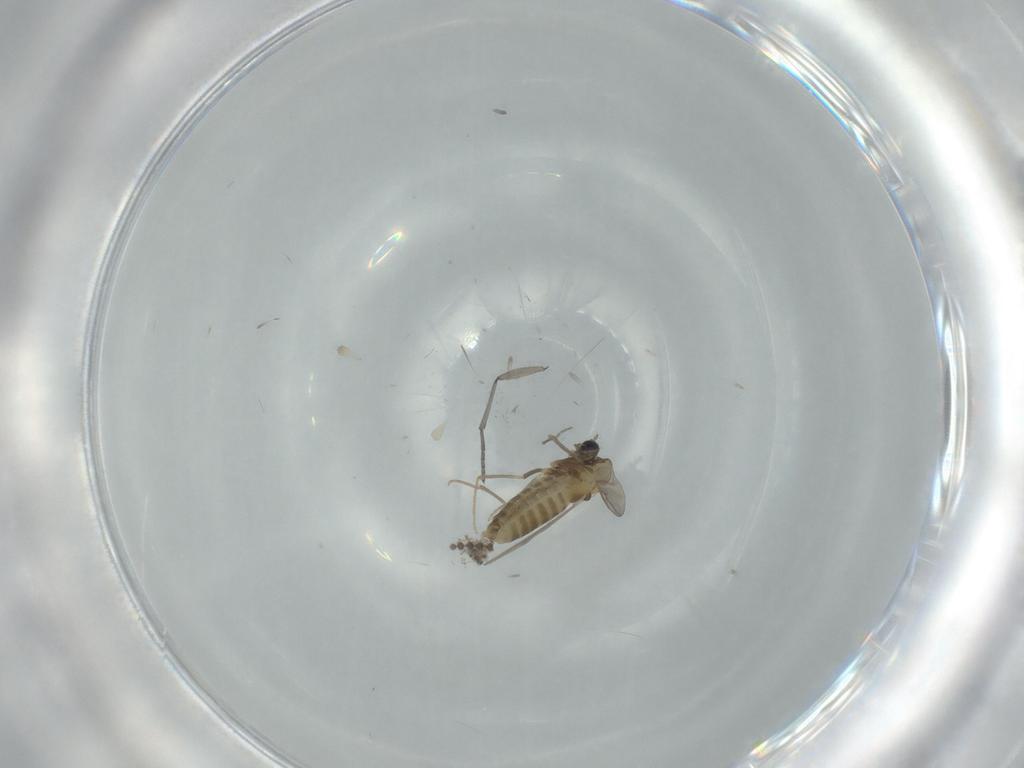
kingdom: Animalia
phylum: Arthropoda
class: Insecta
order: Diptera
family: Chironomidae
